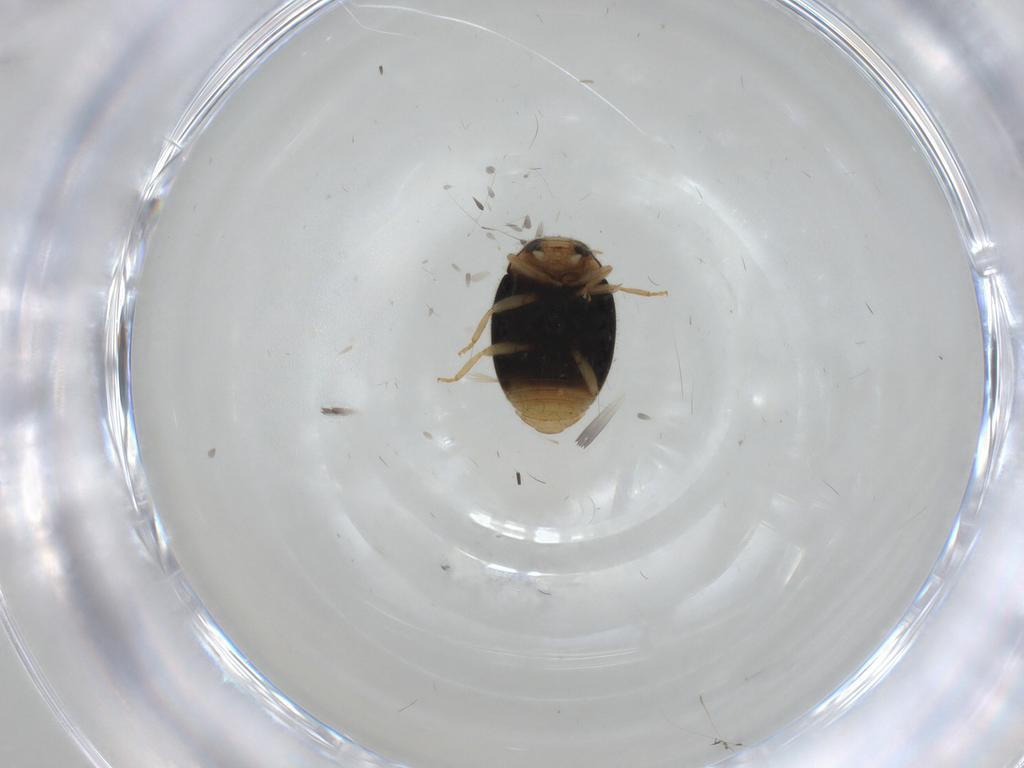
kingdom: Animalia
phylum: Arthropoda
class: Insecta
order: Coleoptera
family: Coccinellidae
